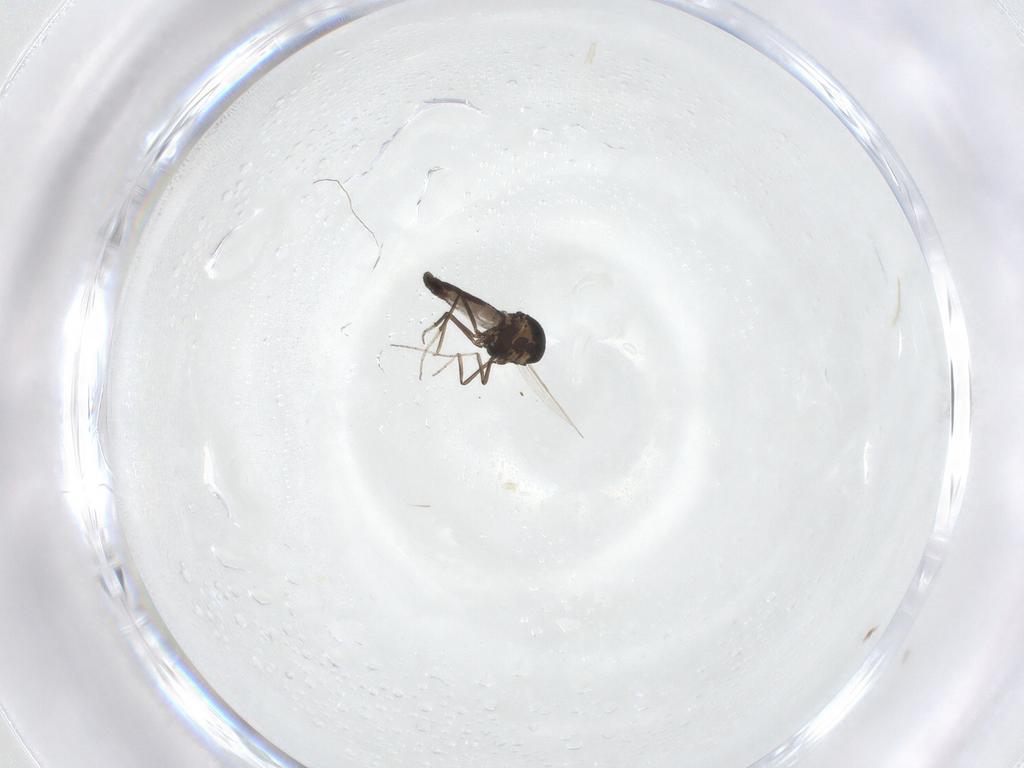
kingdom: Animalia
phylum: Arthropoda
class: Insecta
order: Diptera
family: Ceratopogonidae
